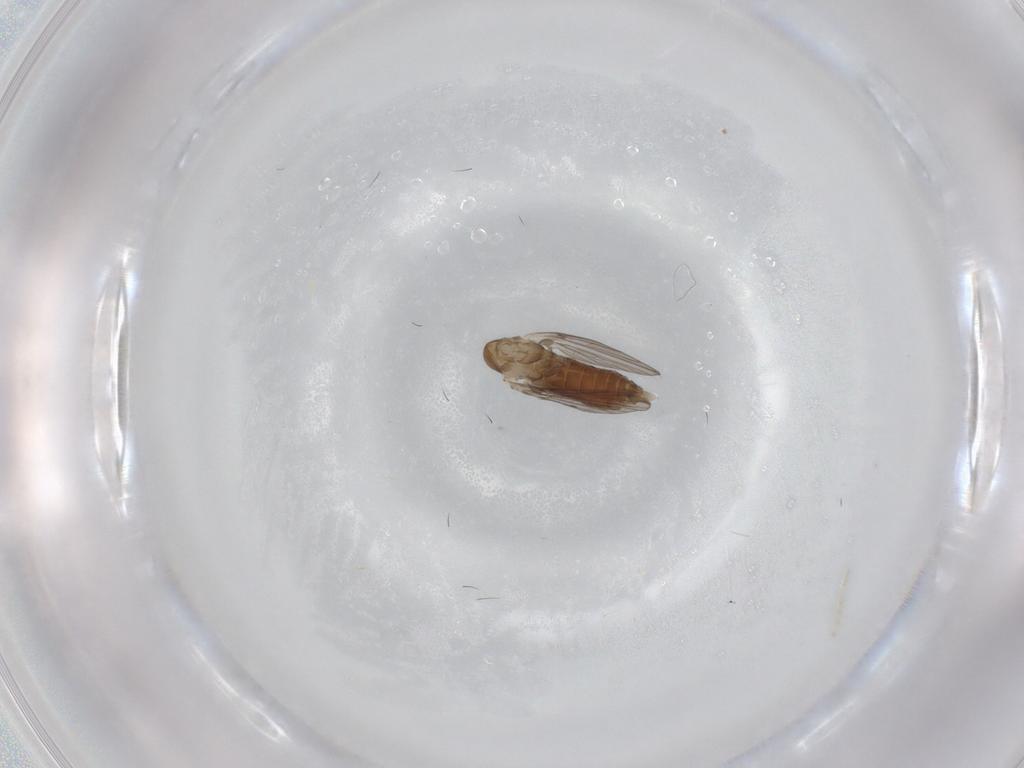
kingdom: Animalia
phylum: Arthropoda
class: Insecta
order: Diptera
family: Psychodidae
